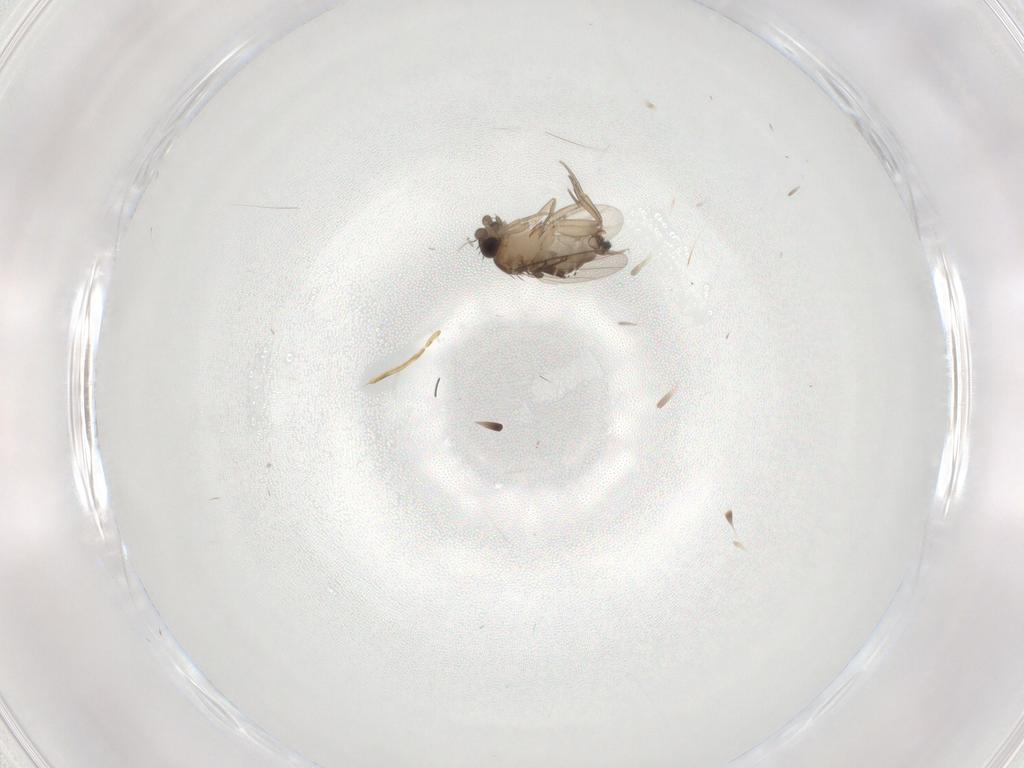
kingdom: Animalia
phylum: Arthropoda
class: Insecta
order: Diptera
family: Phoridae
